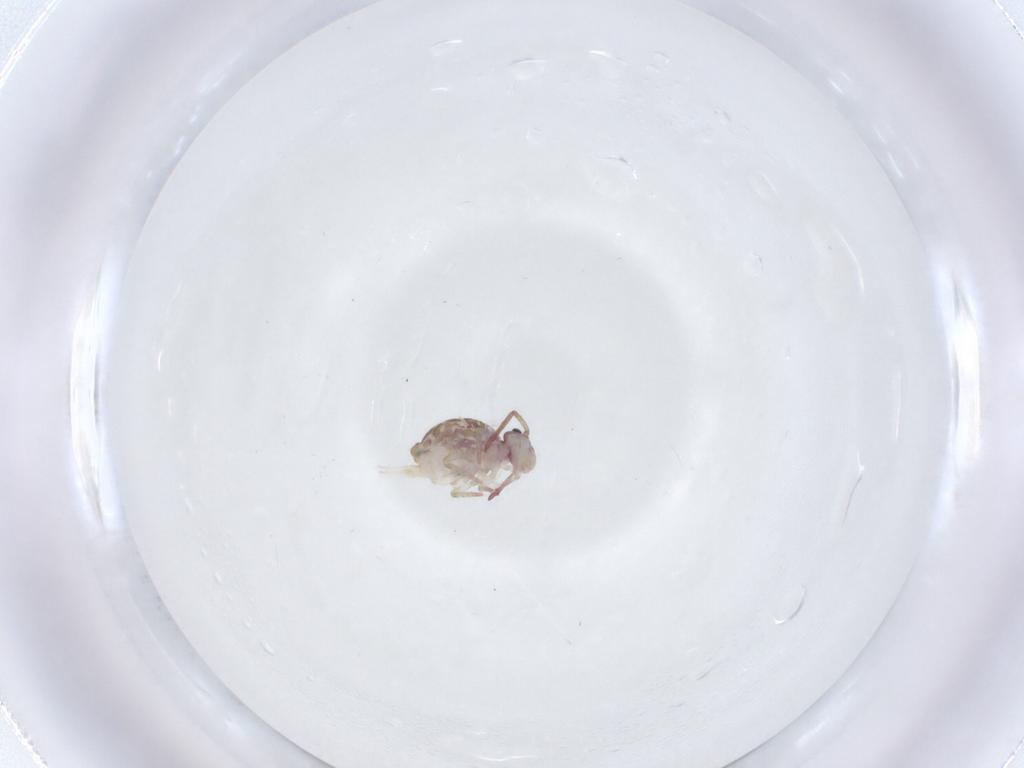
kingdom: Animalia
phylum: Arthropoda
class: Collembola
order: Symphypleona
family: Dicyrtomidae
